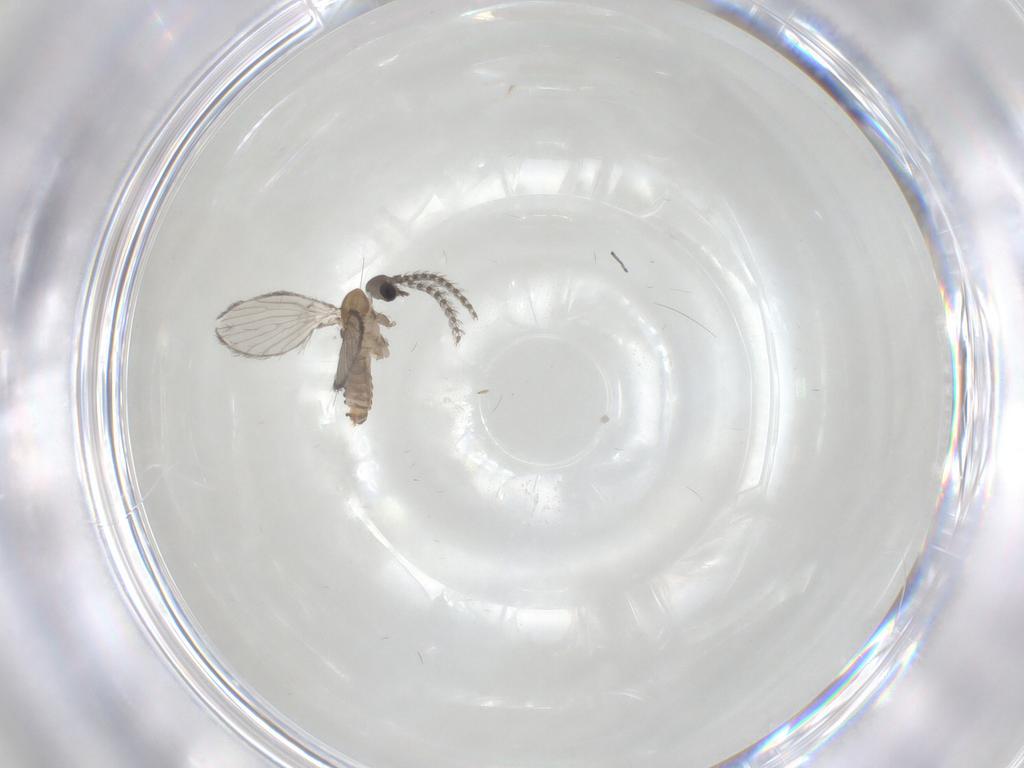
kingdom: Animalia
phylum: Arthropoda
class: Insecta
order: Diptera
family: Psychodidae
